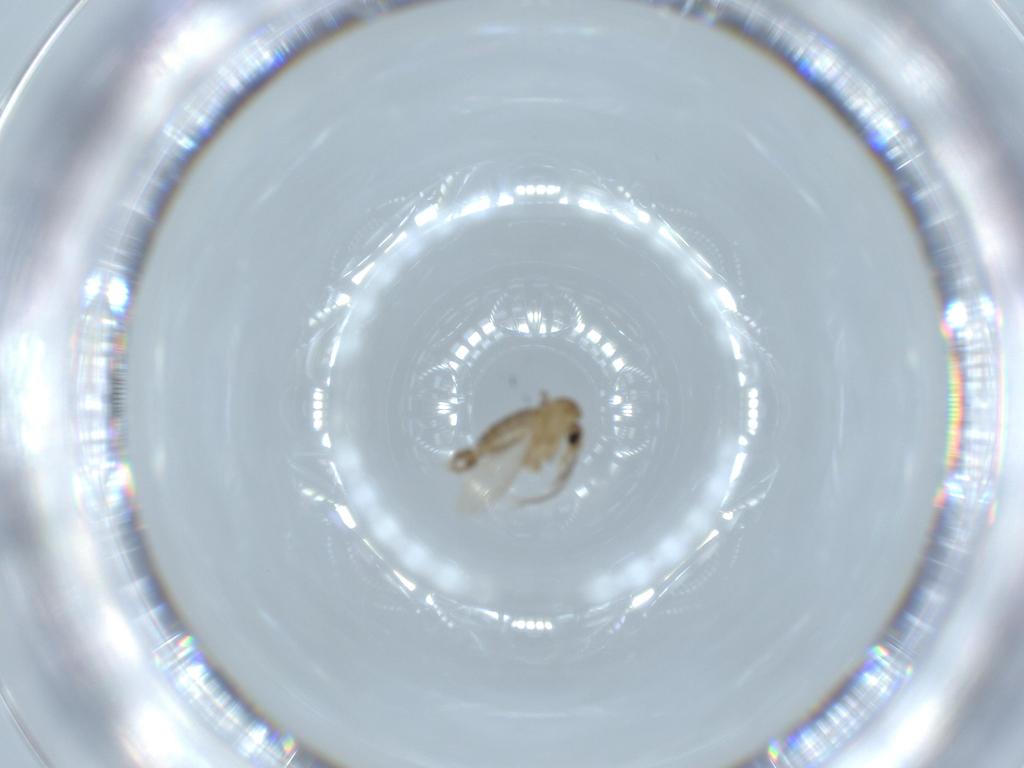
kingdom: Animalia
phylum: Arthropoda
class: Insecta
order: Diptera
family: Psychodidae
